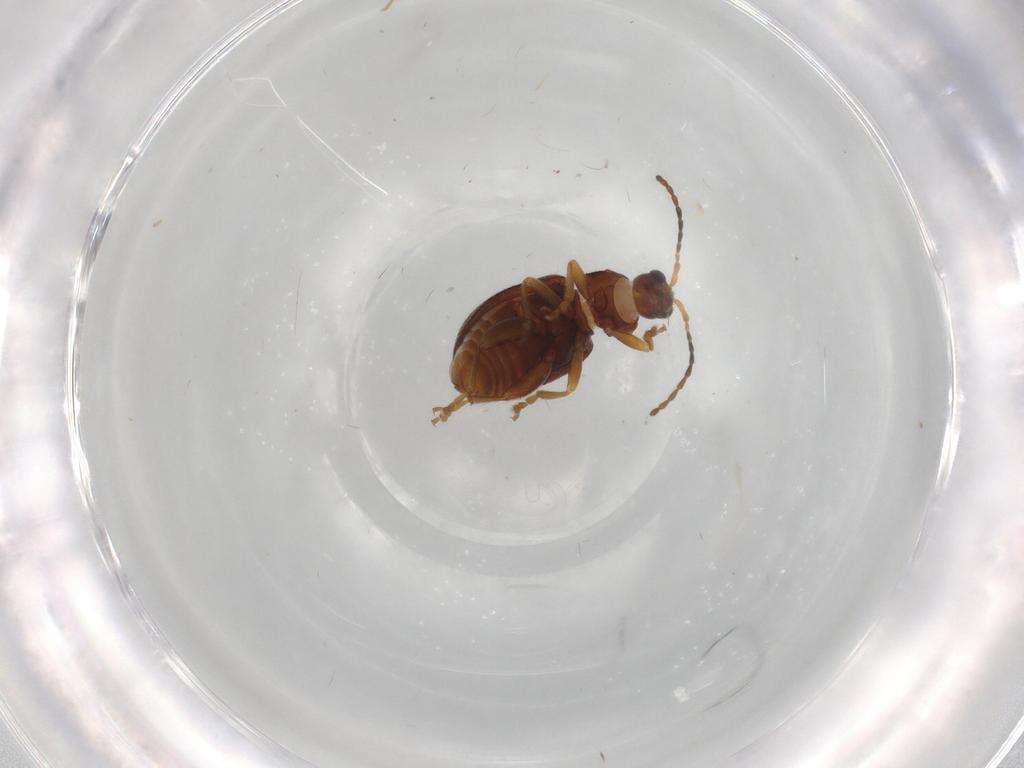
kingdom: Animalia
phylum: Arthropoda
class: Insecta
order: Coleoptera
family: Chrysomelidae
